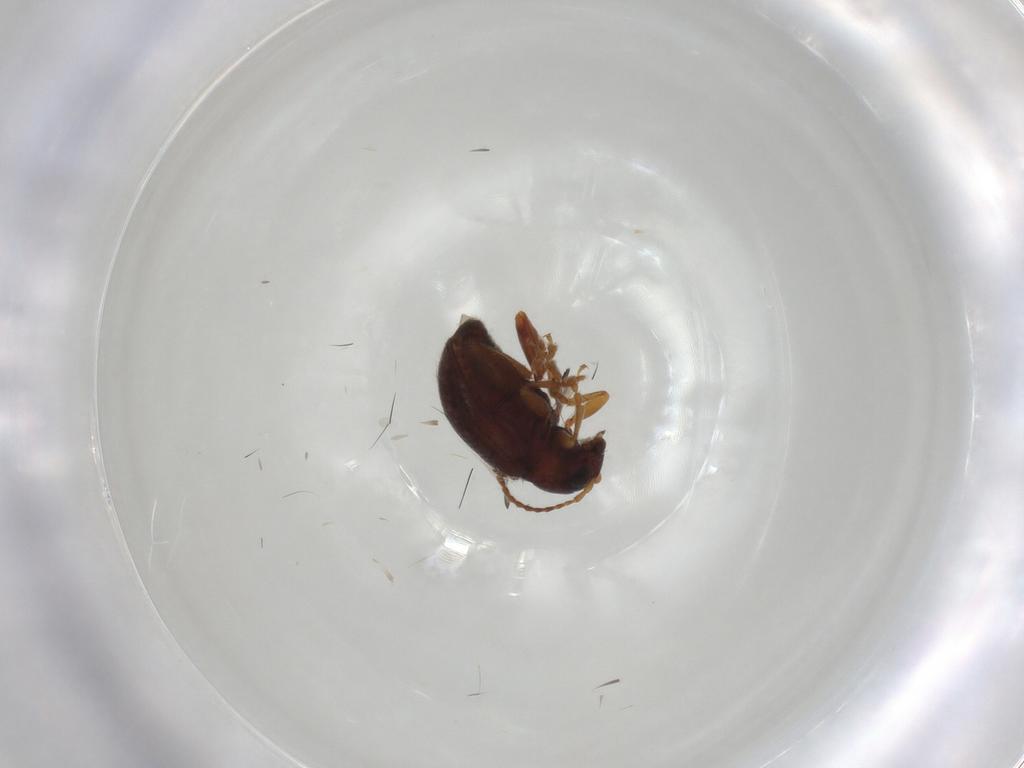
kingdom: Animalia
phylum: Arthropoda
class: Insecta
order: Coleoptera
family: Chrysomelidae
